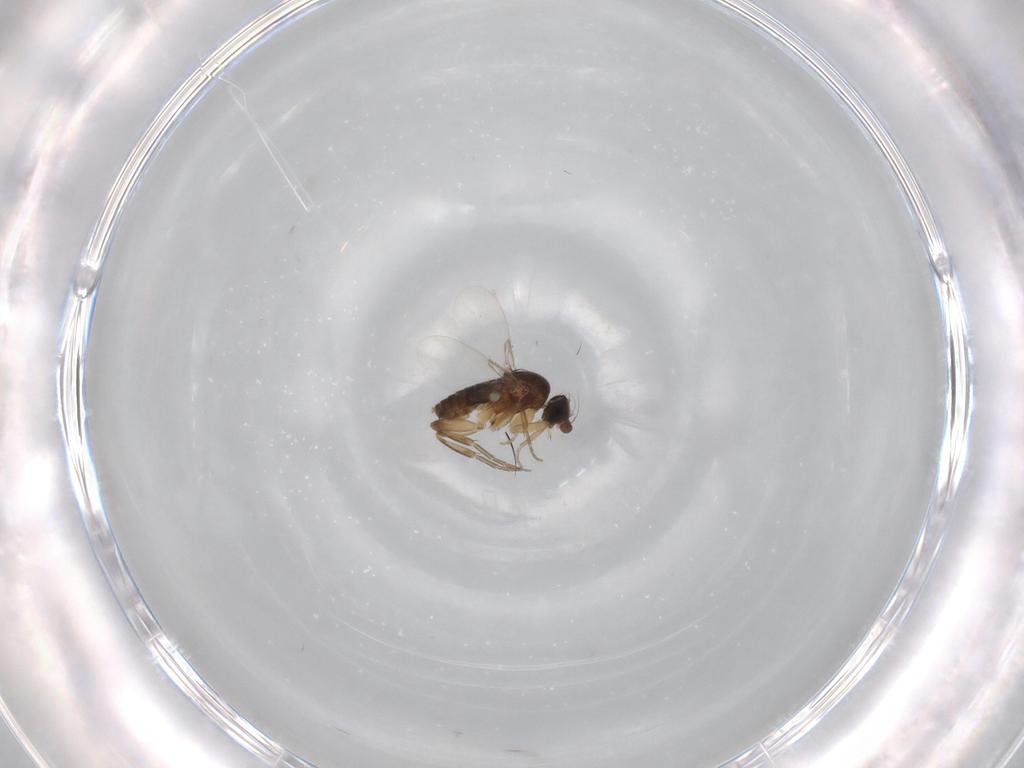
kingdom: Animalia
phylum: Arthropoda
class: Insecta
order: Diptera
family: Phoridae
